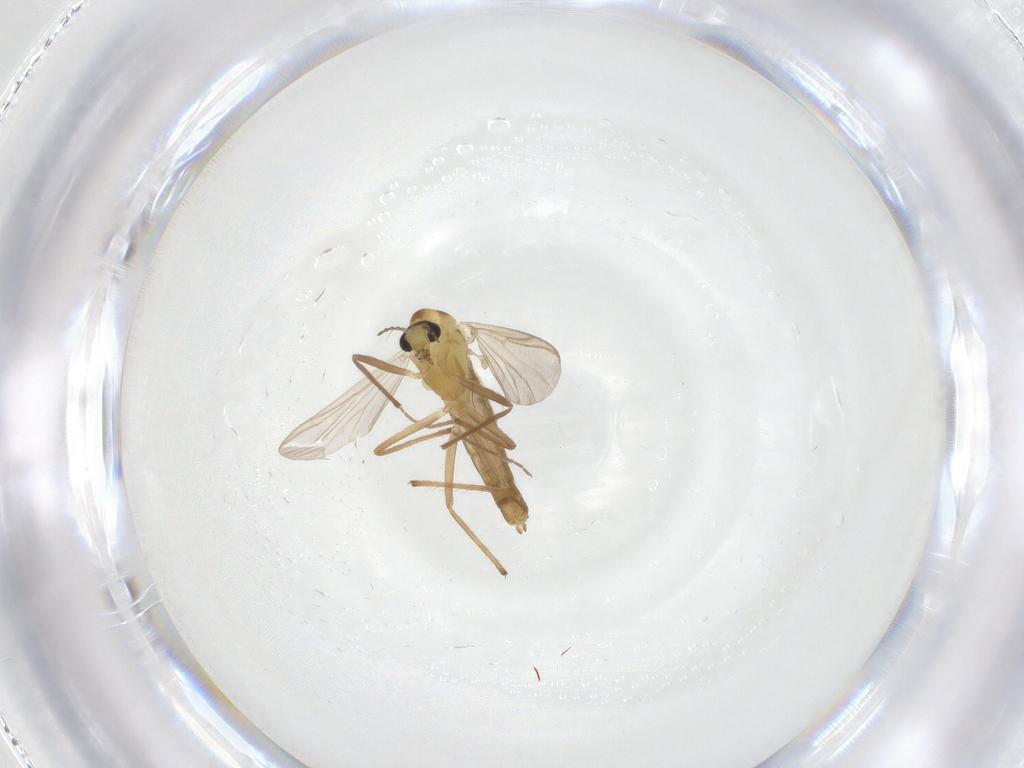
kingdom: Animalia
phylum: Arthropoda
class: Insecta
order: Diptera
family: Chironomidae
